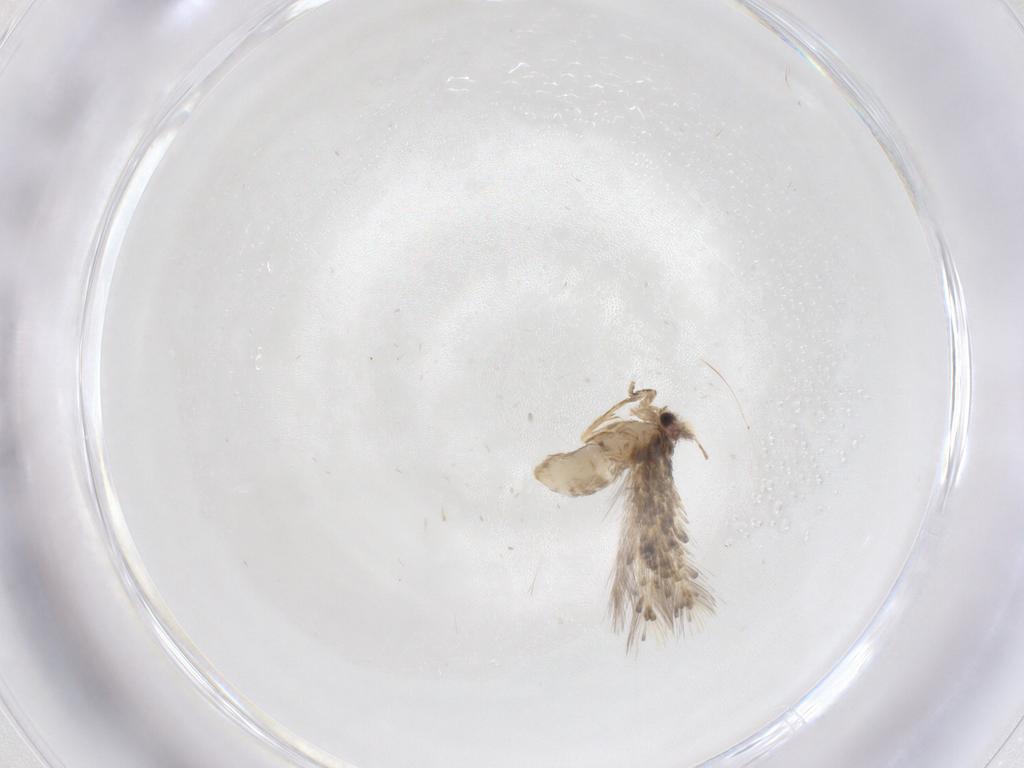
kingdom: Animalia
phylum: Arthropoda
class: Insecta
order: Lepidoptera
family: Nepticulidae
